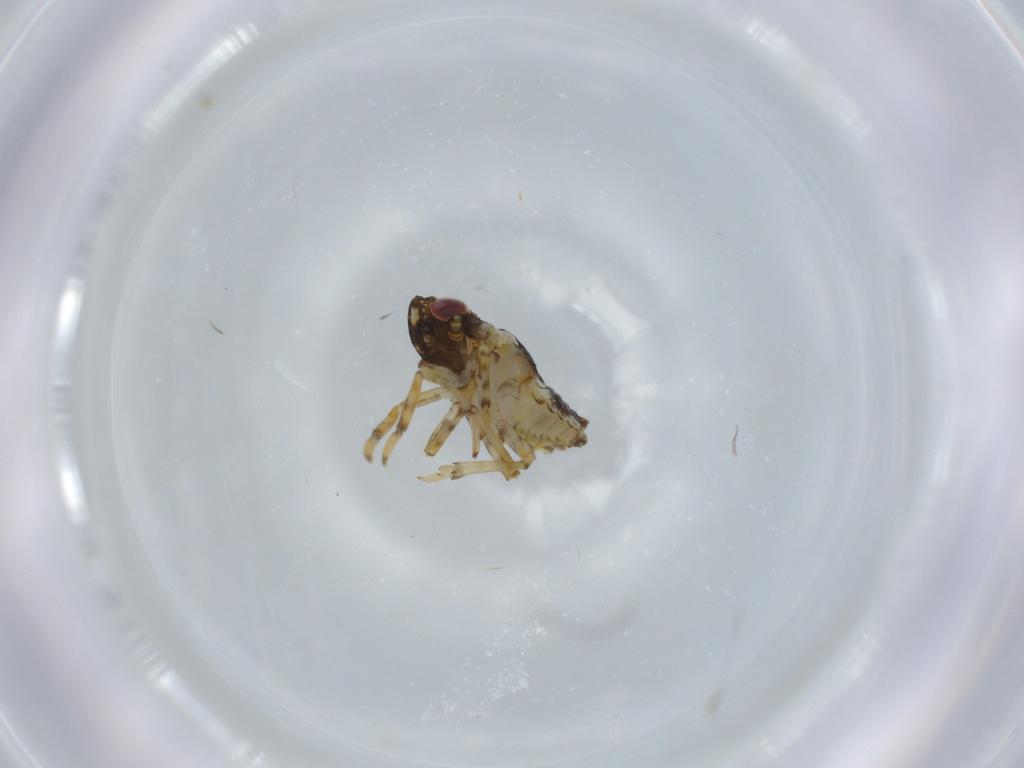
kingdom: Animalia
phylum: Arthropoda
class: Insecta
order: Hemiptera
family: Issidae
